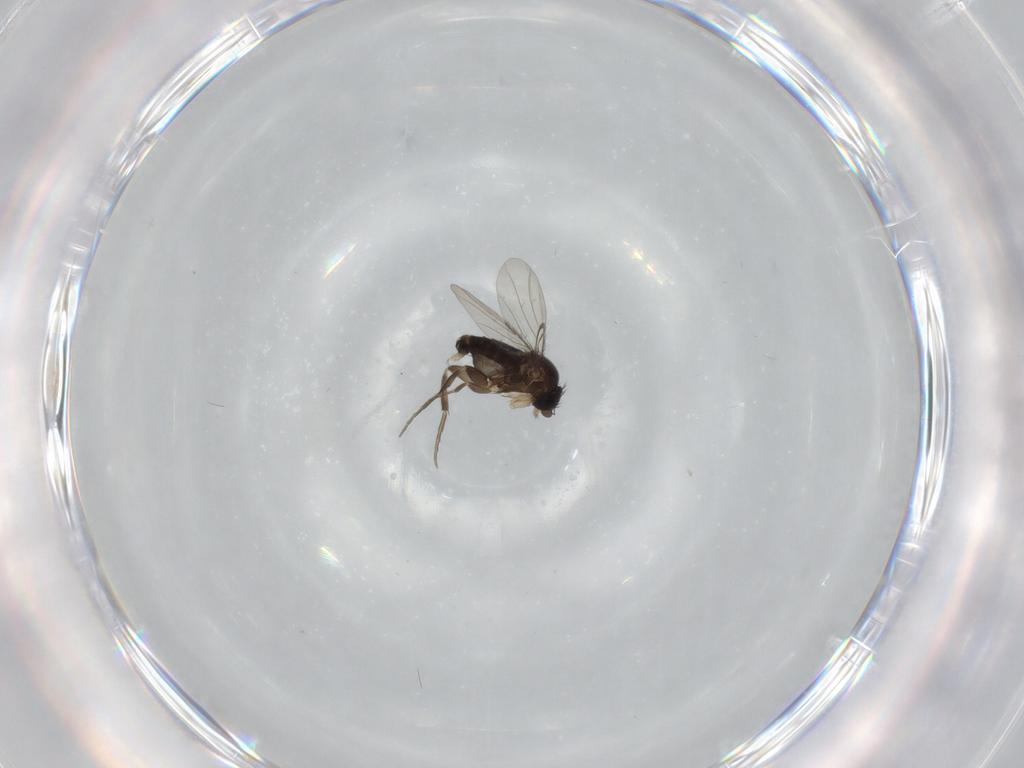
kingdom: Animalia
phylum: Arthropoda
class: Insecta
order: Diptera
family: Phoridae
